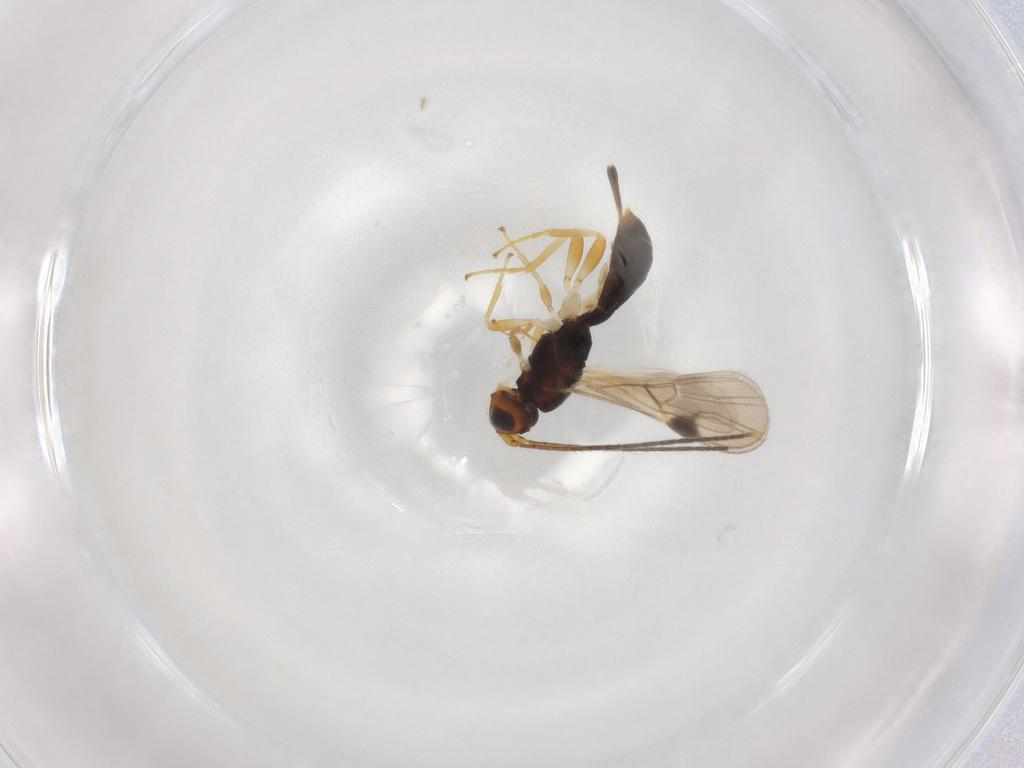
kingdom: Animalia
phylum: Arthropoda
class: Insecta
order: Hymenoptera
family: Braconidae
